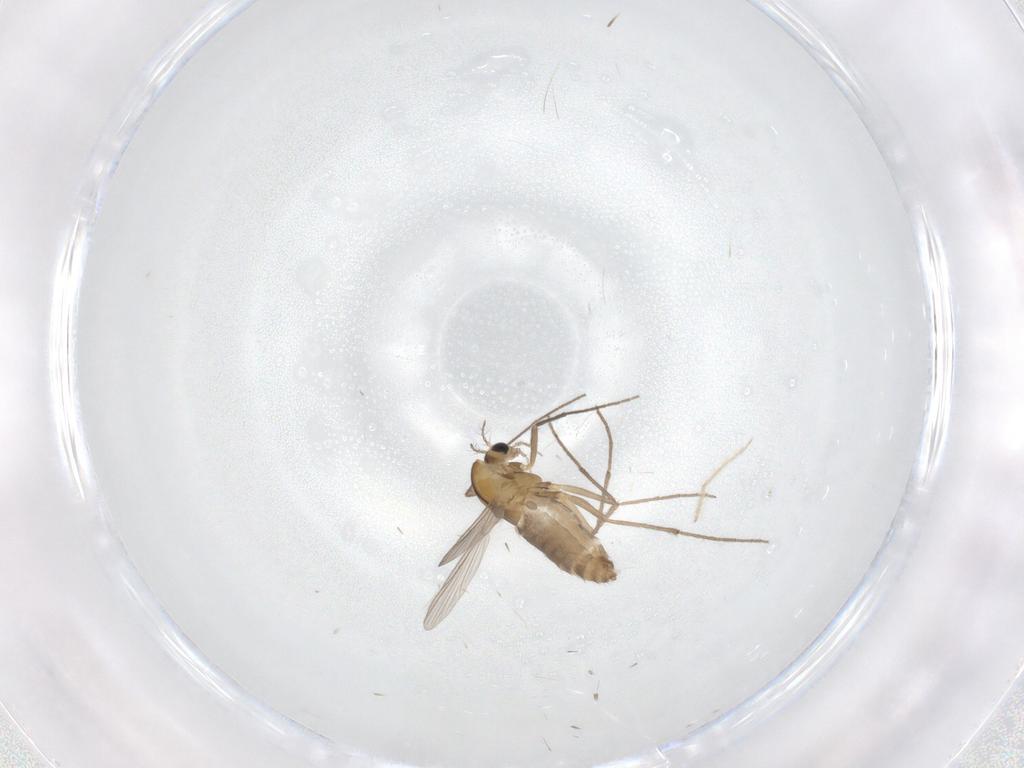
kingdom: Animalia
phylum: Arthropoda
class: Insecta
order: Diptera
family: Chironomidae
